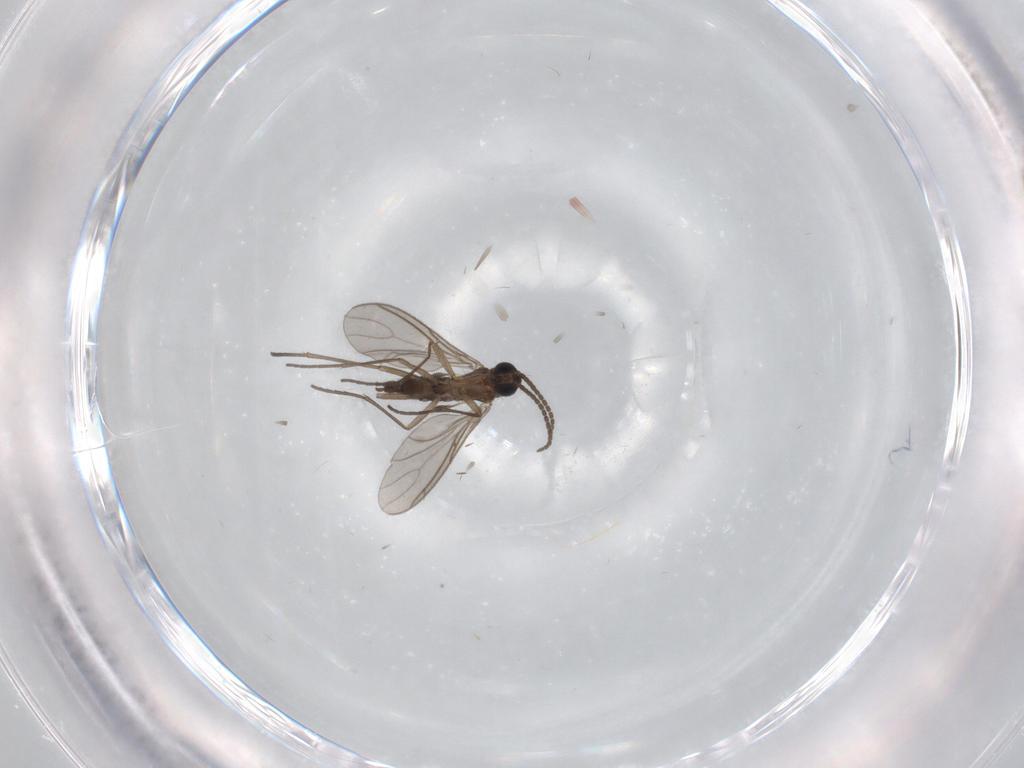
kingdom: Animalia
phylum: Arthropoda
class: Insecta
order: Diptera
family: Sciaridae
